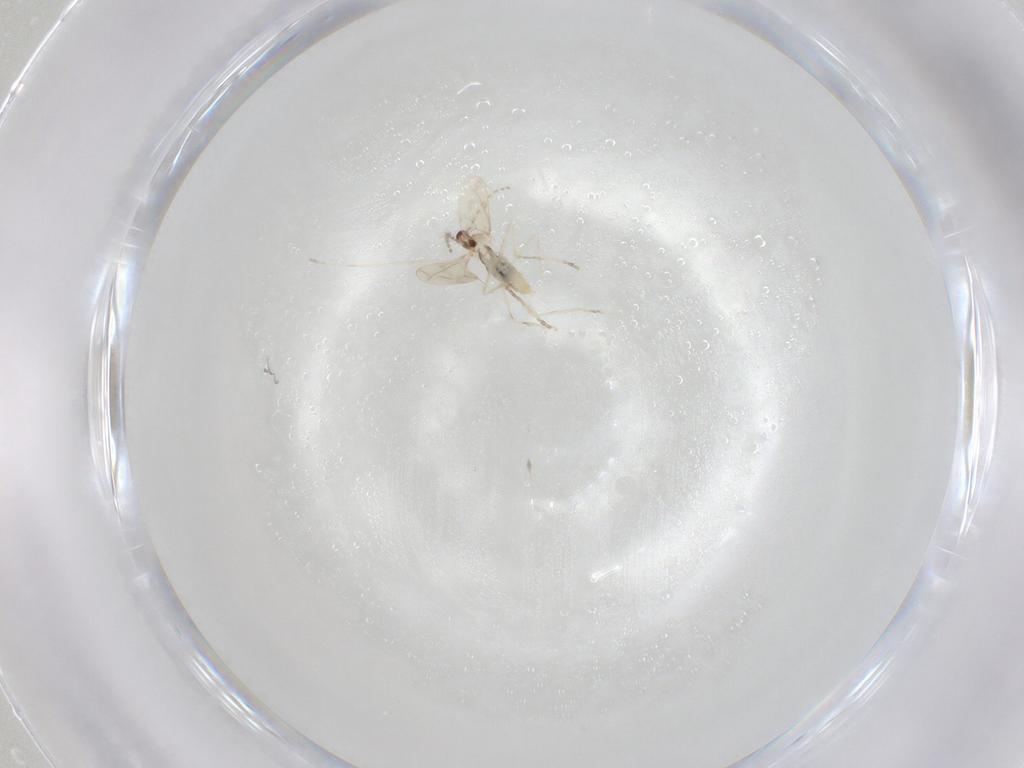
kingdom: Animalia
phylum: Arthropoda
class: Insecta
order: Diptera
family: Cecidomyiidae
